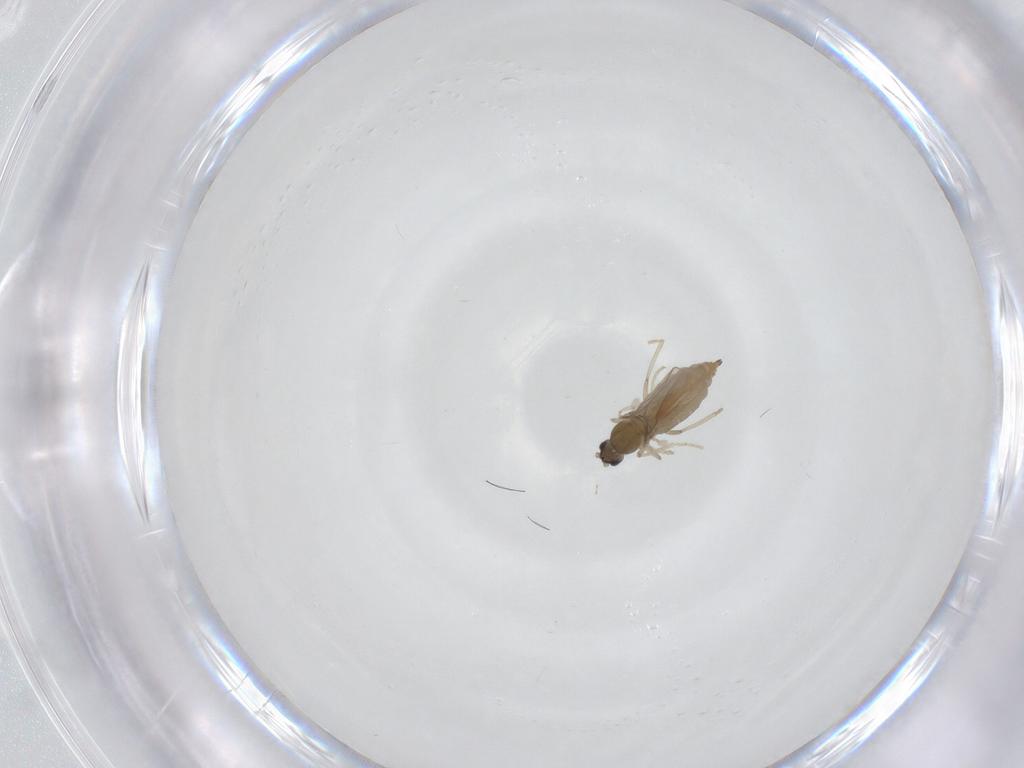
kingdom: Animalia
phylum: Arthropoda
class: Insecta
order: Diptera
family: Cecidomyiidae
